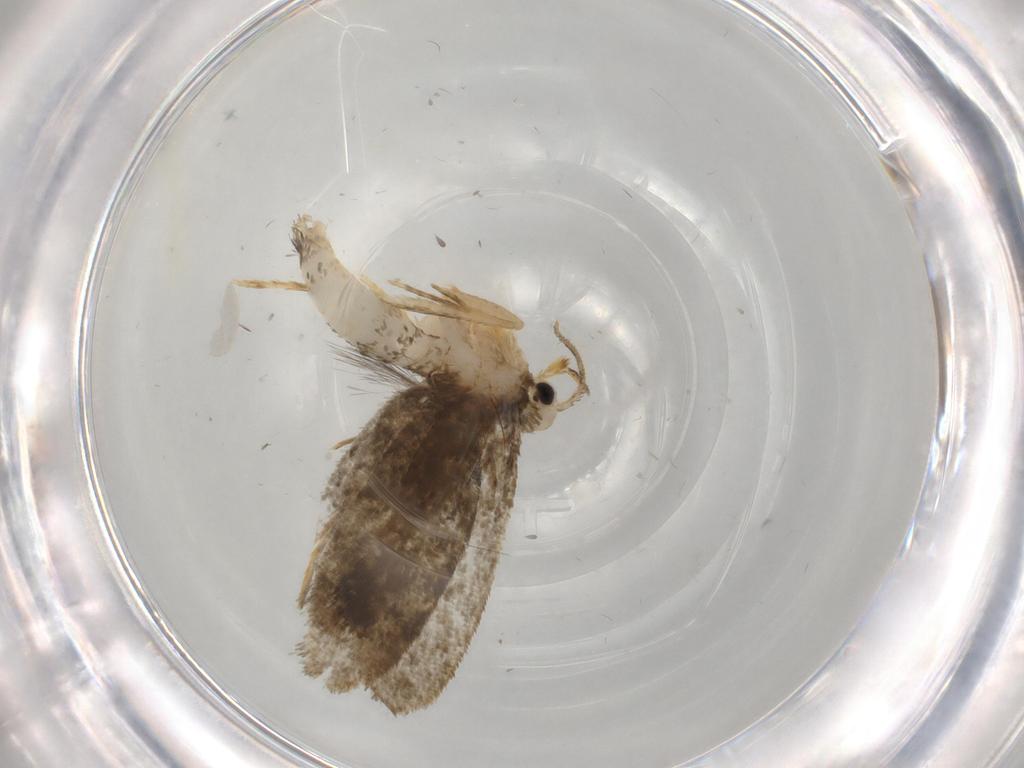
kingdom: Animalia
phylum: Arthropoda
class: Insecta
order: Lepidoptera
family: Psychidae
